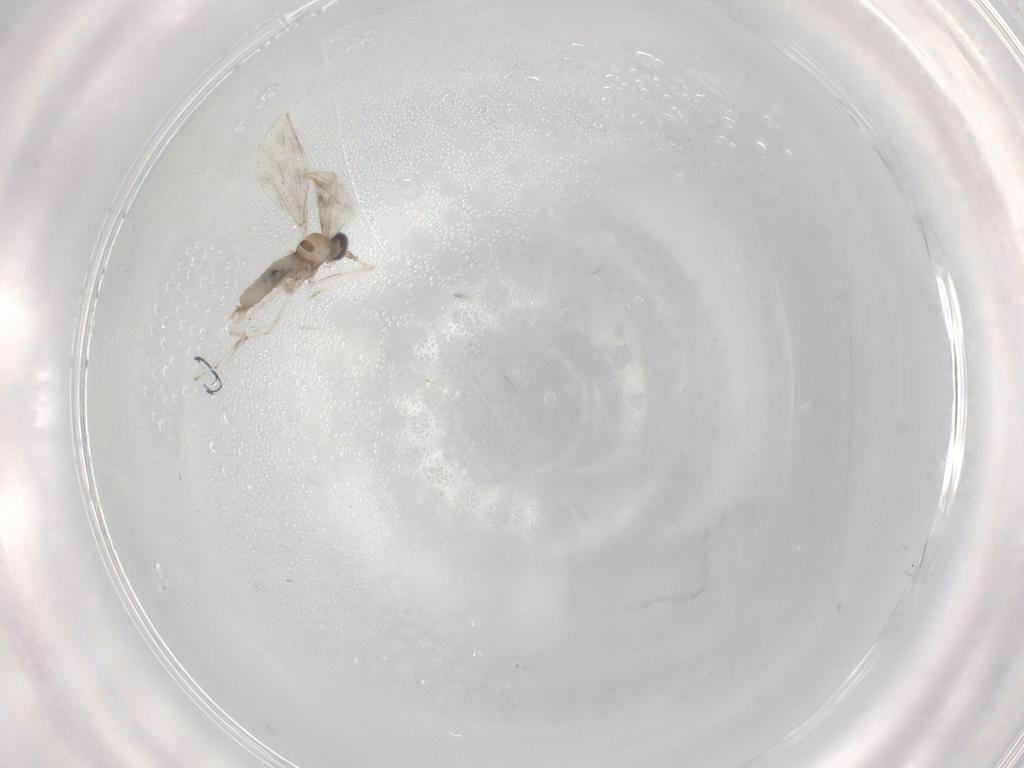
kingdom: Animalia
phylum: Arthropoda
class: Insecta
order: Diptera
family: Cecidomyiidae
